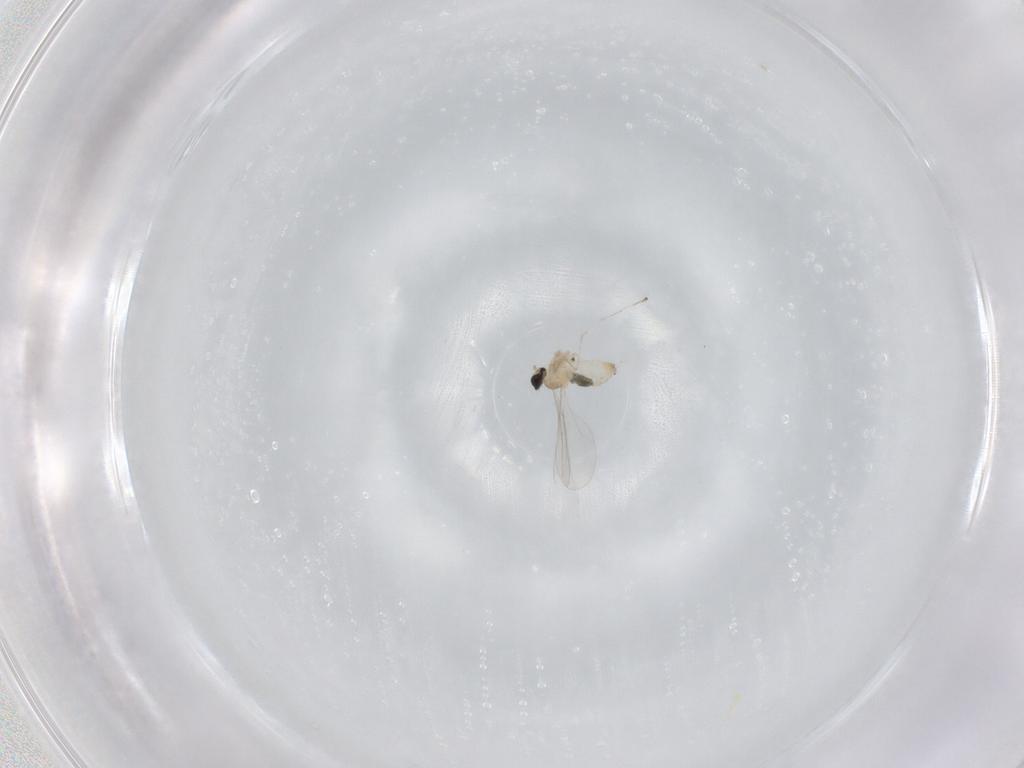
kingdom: Animalia
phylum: Arthropoda
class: Insecta
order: Diptera
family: Cecidomyiidae
